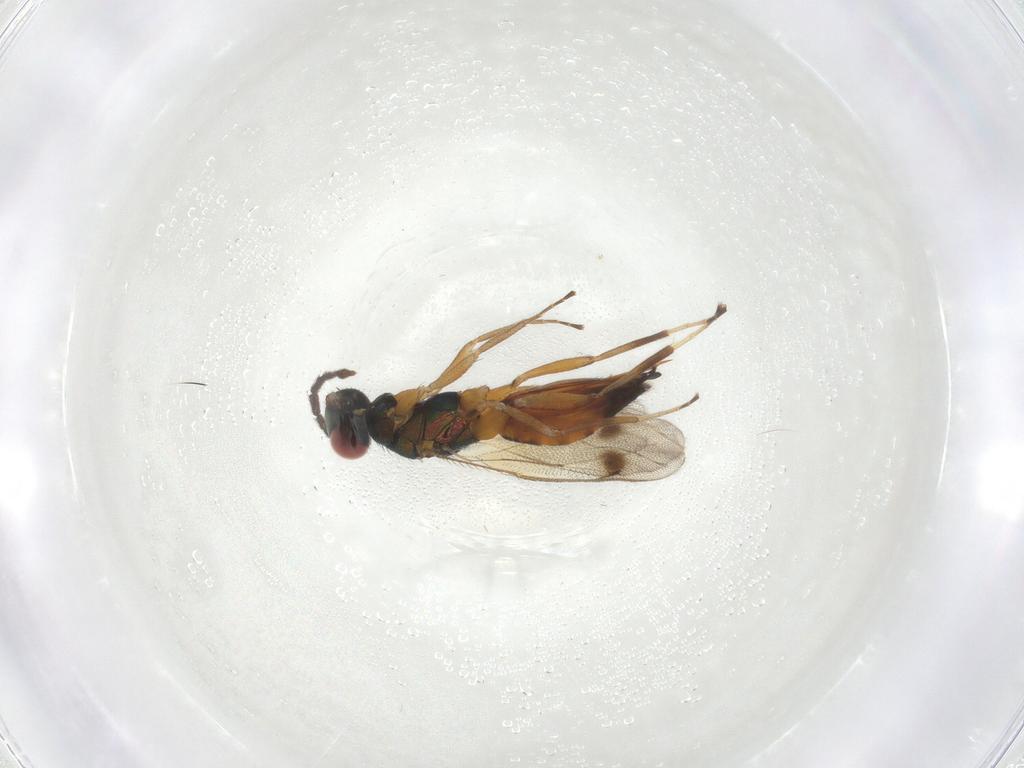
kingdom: Animalia
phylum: Arthropoda
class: Insecta
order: Hymenoptera
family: Eulophidae
